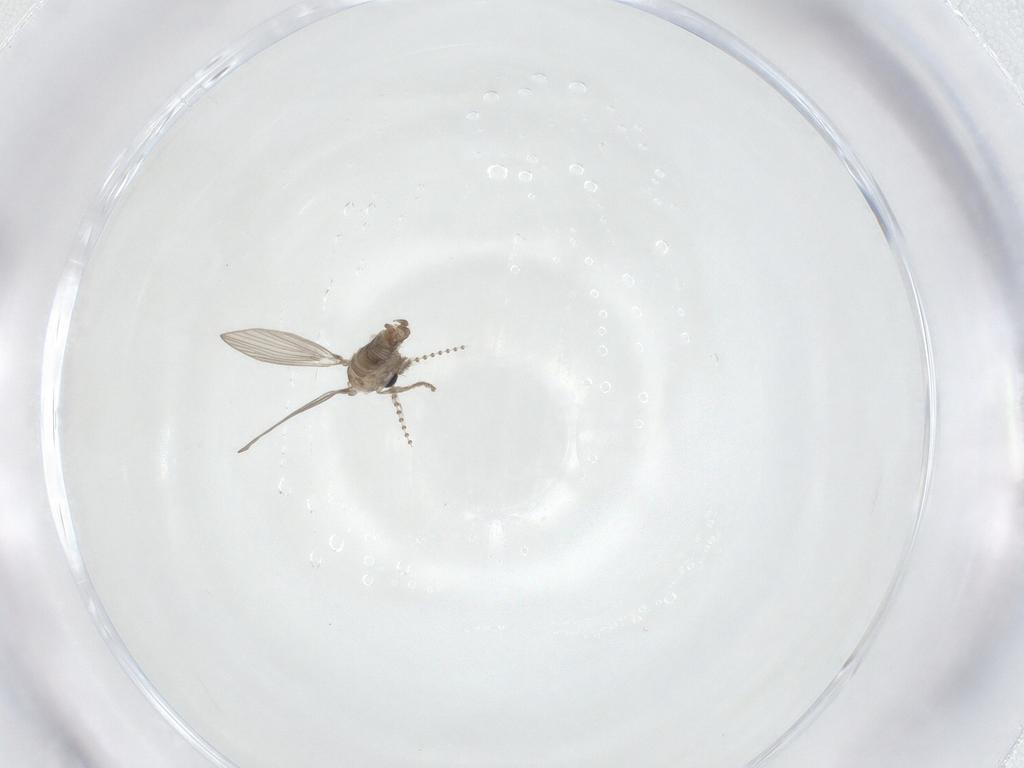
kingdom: Animalia
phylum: Arthropoda
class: Insecta
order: Diptera
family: Psychodidae
